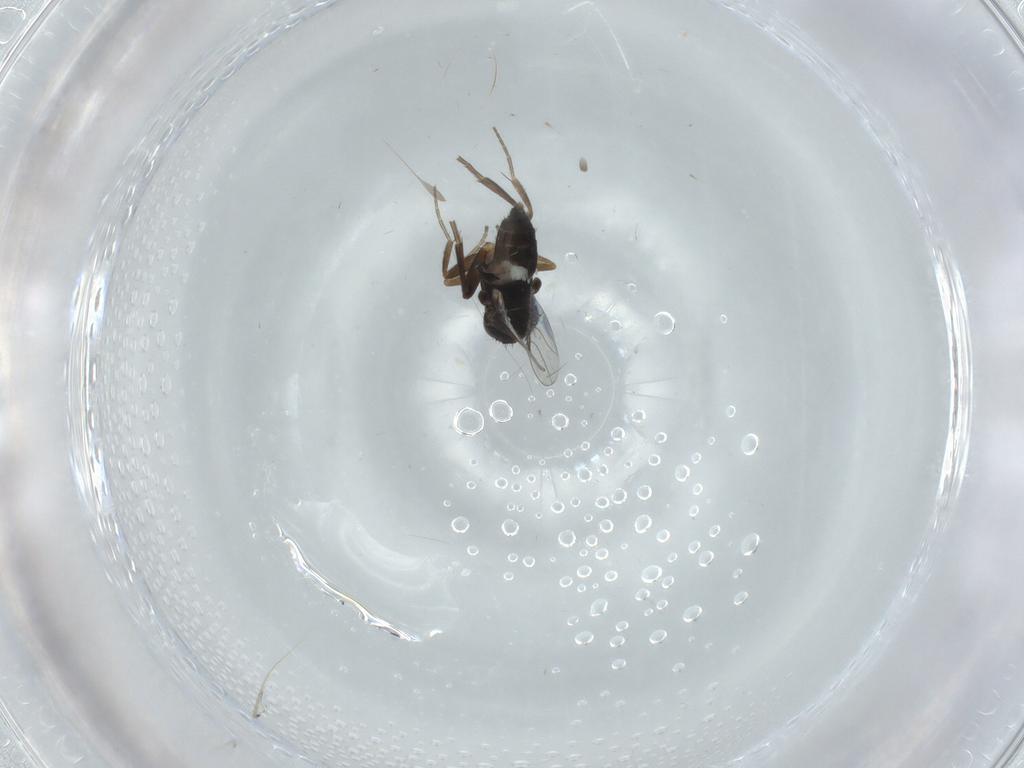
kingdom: Animalia
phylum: Arthropoda
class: Insecta
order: Diptera
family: Phoridae
